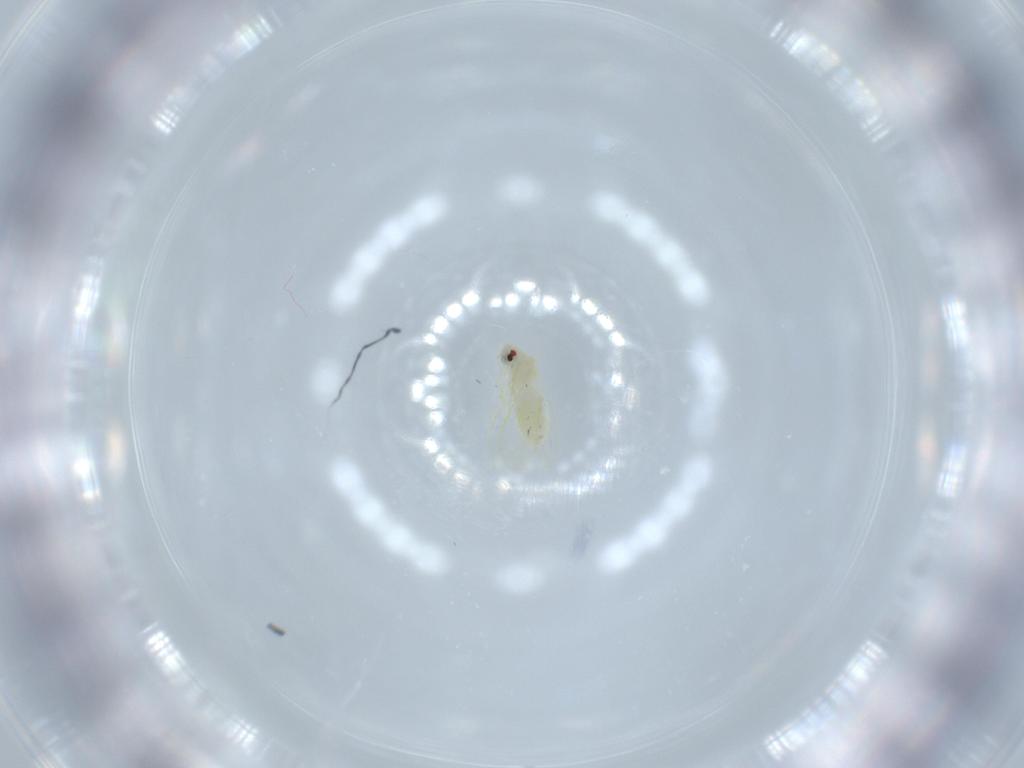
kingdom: Animalia
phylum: Arthropoda
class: Insecta
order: Hemiptera
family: Aleyrodidae
